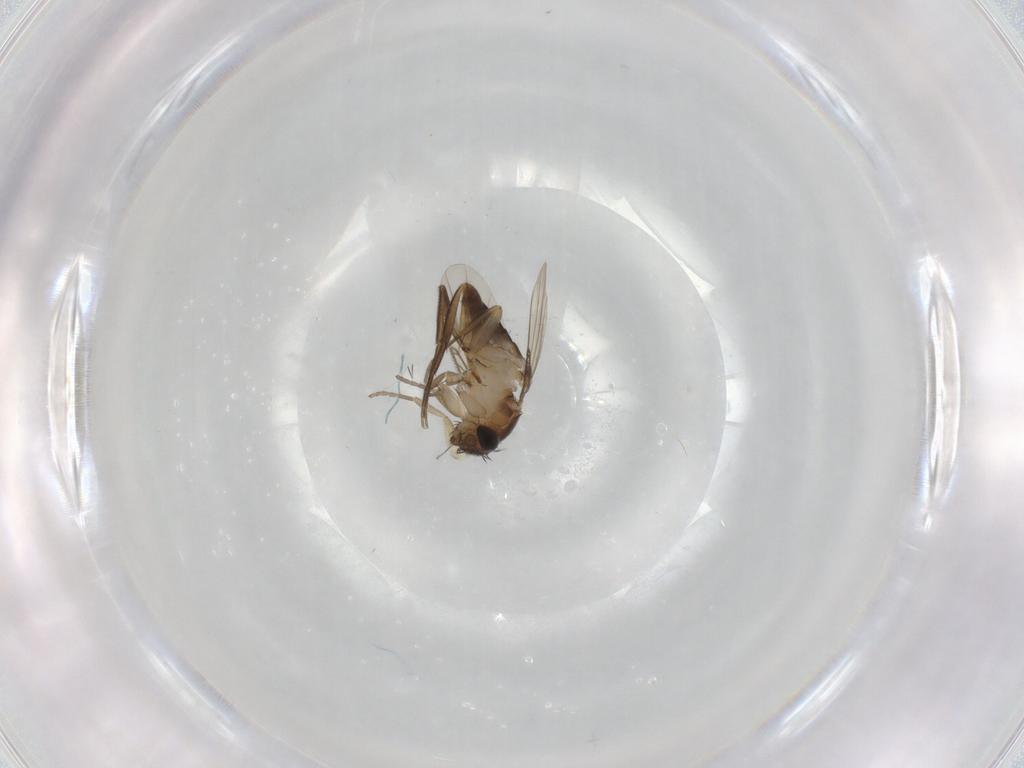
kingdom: Animalia
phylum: Arthropoda
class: Insecta
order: Diptera
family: Phoridae
